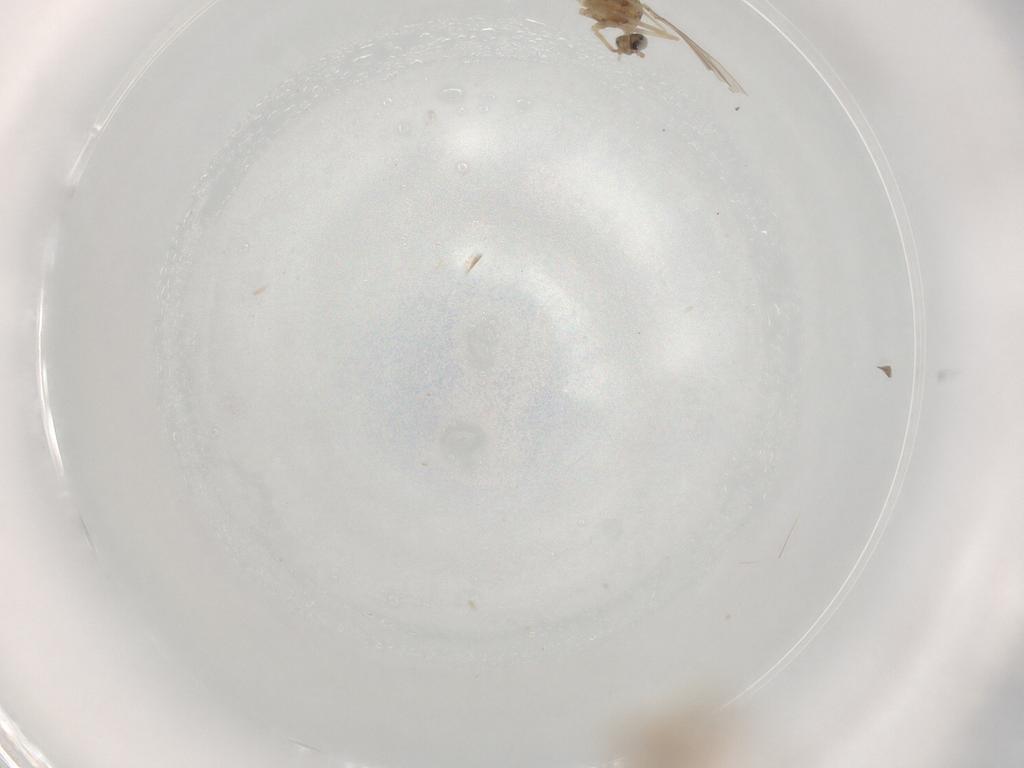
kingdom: Animalia
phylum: Arthropoda
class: Insecta
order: Diptera
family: Cecidomyiidae
